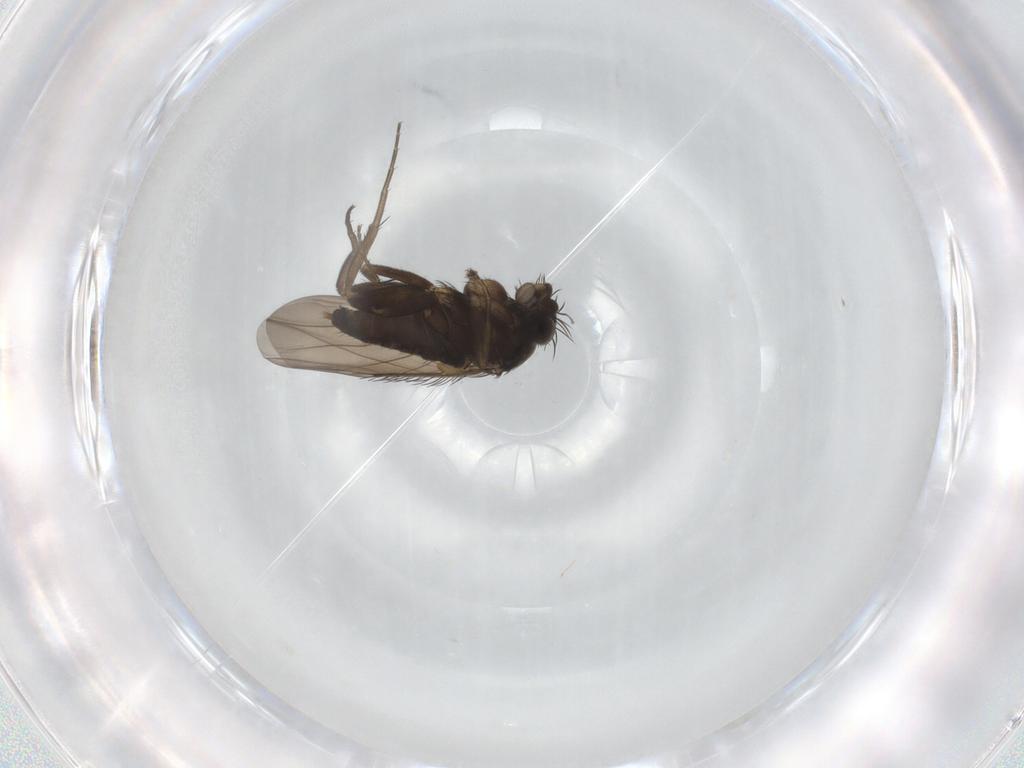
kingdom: Animalia
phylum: Arthropoda
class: Insecta
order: Diptera
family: Phoridae
